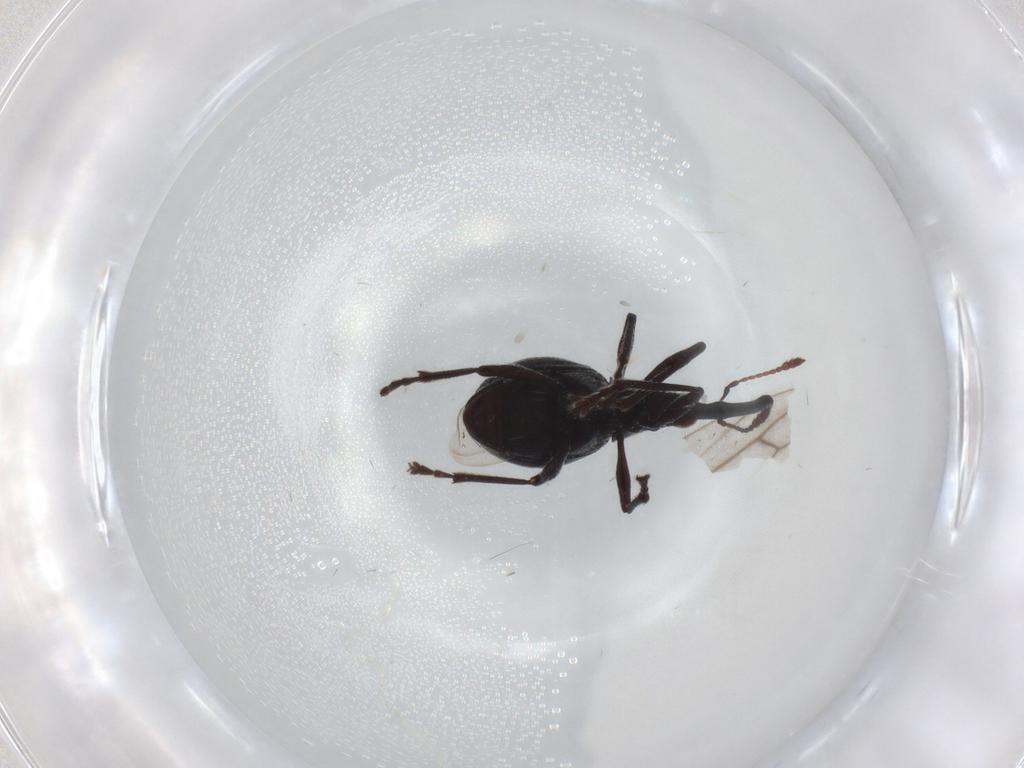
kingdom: Animalia
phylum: Arthropoda
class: Insecta
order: Coleoptera
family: Brentidae
